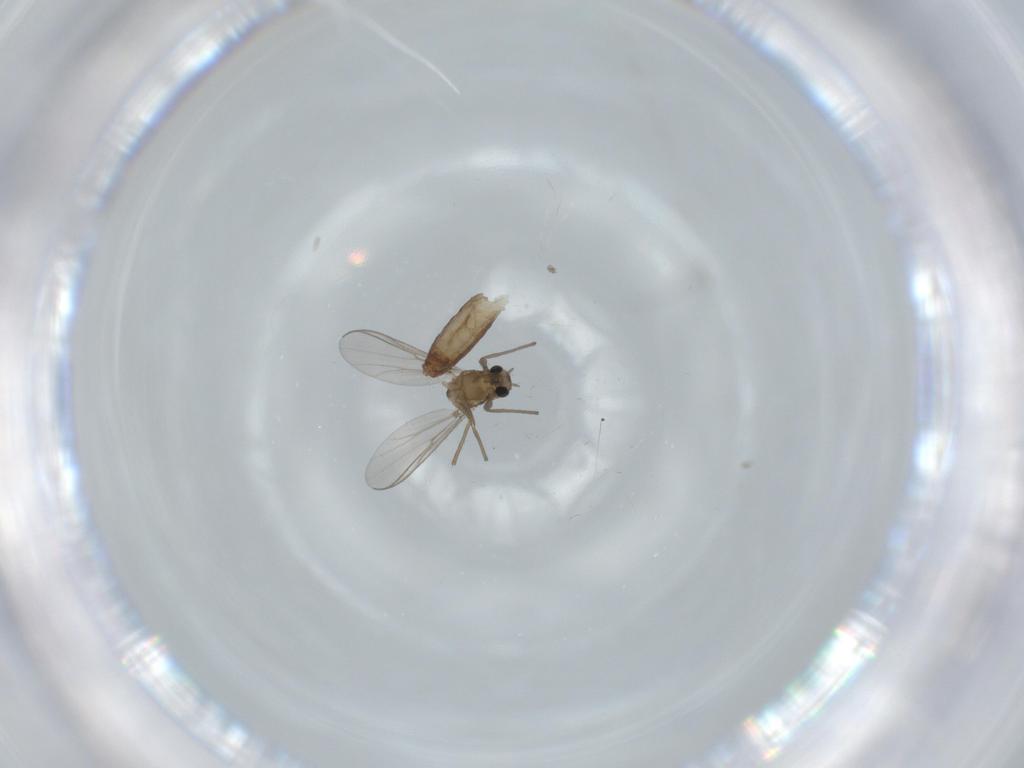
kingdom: Animalia
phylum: Arthropoda
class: Insecta
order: Diptera
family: Chironomidae
